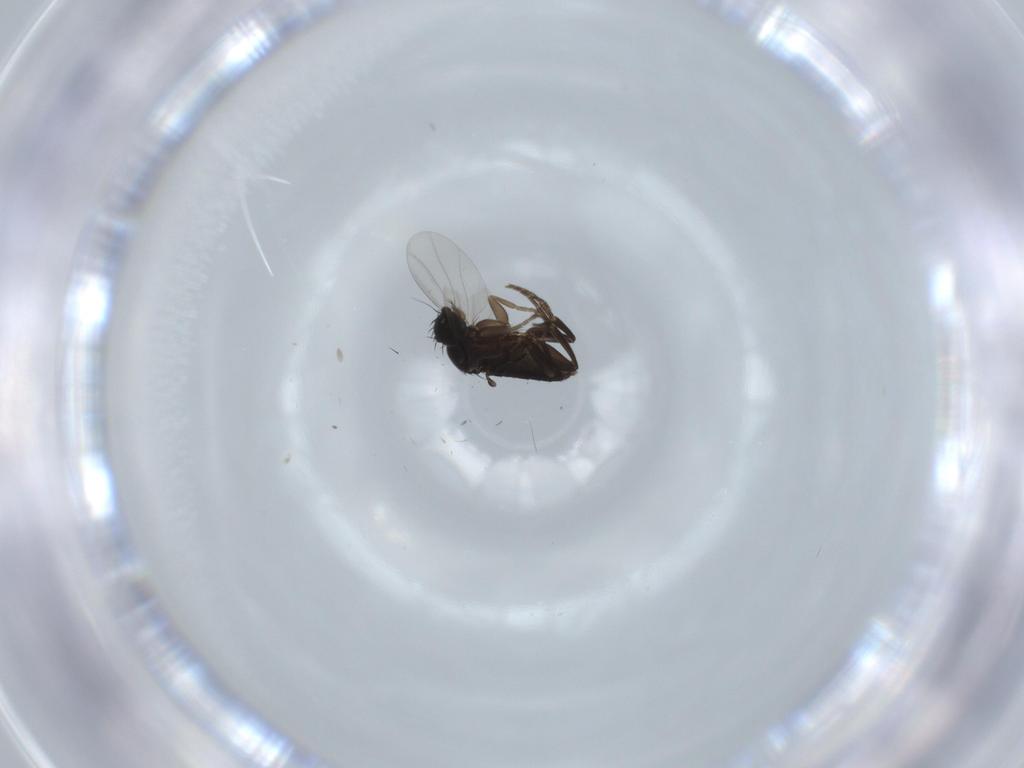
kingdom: Animalia
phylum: Arthropoda
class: Insecta
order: Diptera
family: Phoridae
